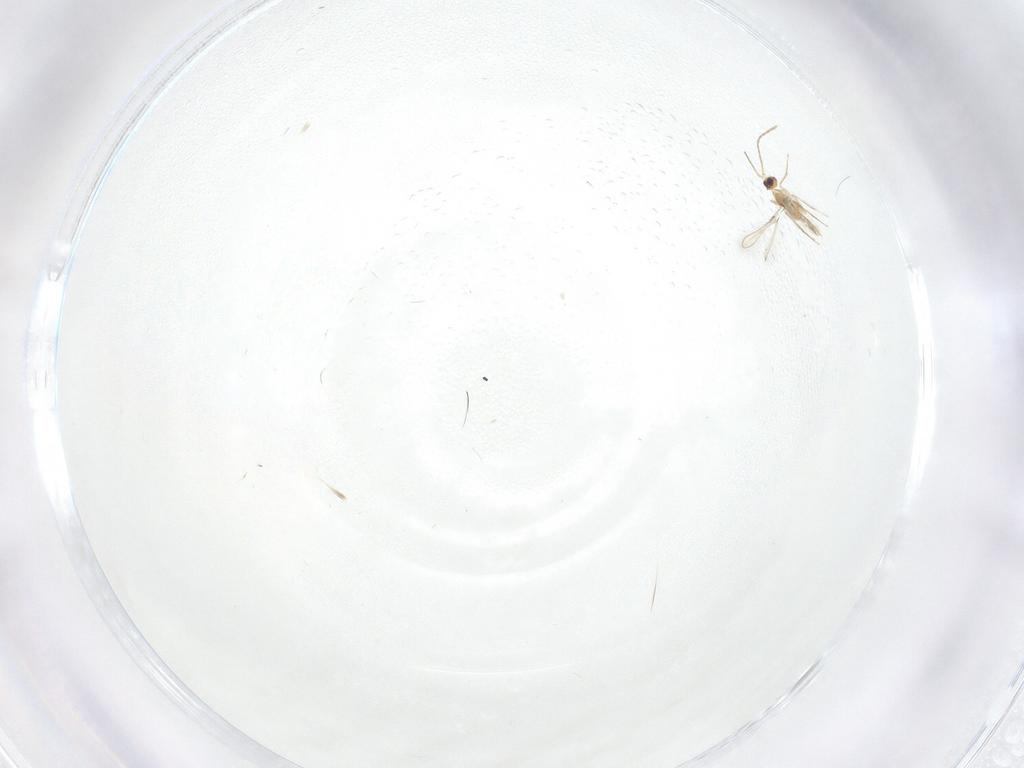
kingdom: Animalia
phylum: Arthropoda
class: Insecta
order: Hymenoptera
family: Mymaridae
